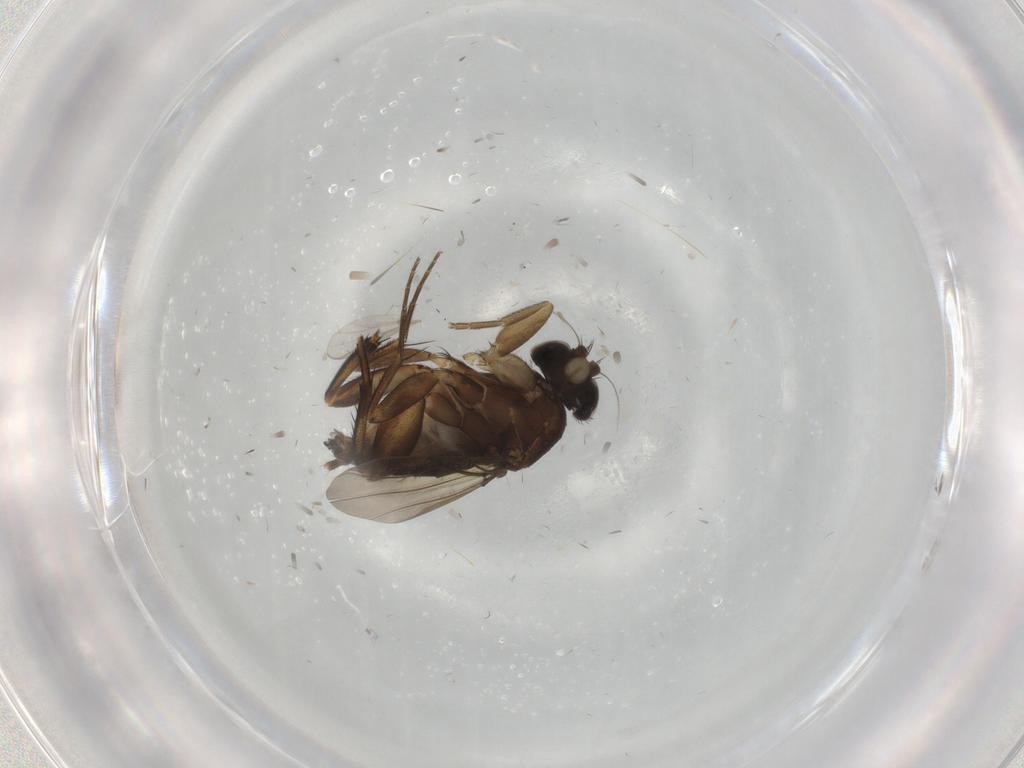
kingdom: Animalia
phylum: Arthropoda
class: Insecta
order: Diptera
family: Phoridae
